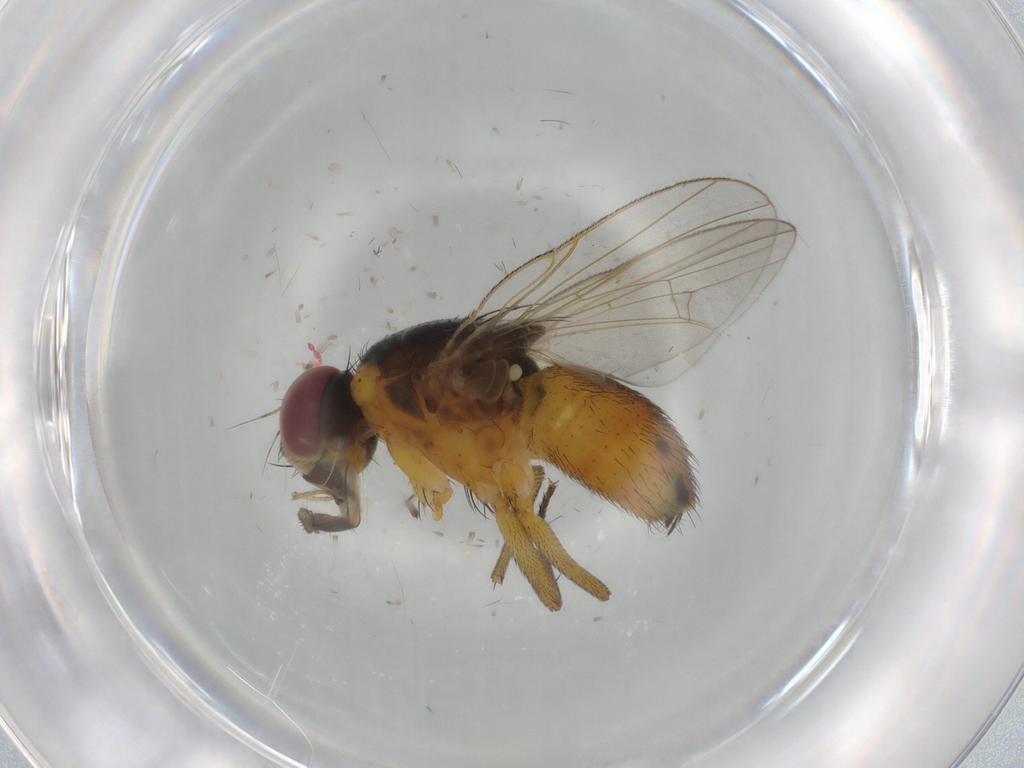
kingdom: Animalia
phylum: Arthropoda
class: Insecta
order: Diptera
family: Muscidae
